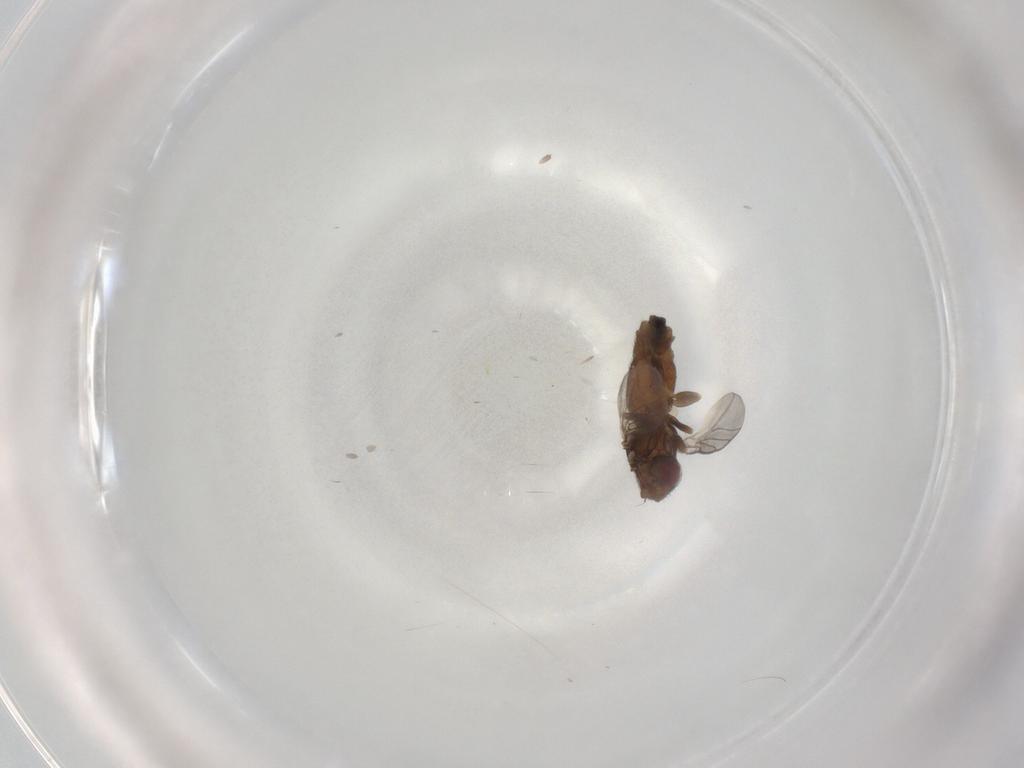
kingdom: Animalia
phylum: Arthropoda
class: Insecta
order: Diptera
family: Chloropidae
